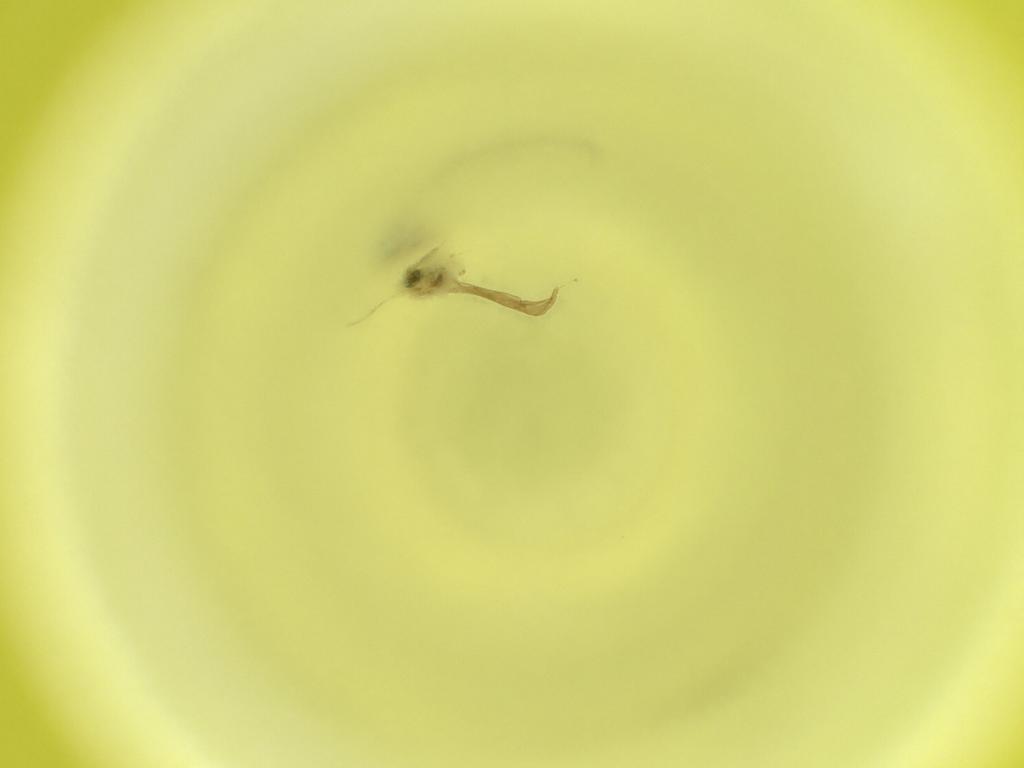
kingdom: Animalia
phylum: Arthropoda
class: Insecta
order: Diptera
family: Cecidomyiidae
